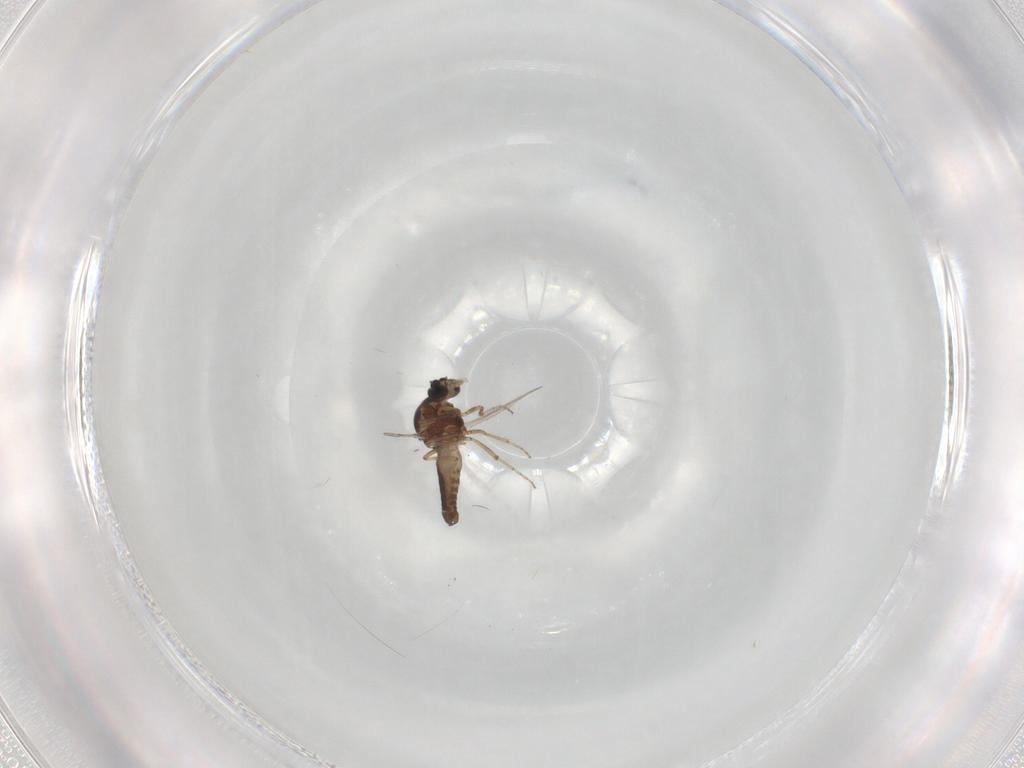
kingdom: Animalia
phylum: Arthropoda
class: Insecta
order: Diptera
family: Ceratopogonidae
